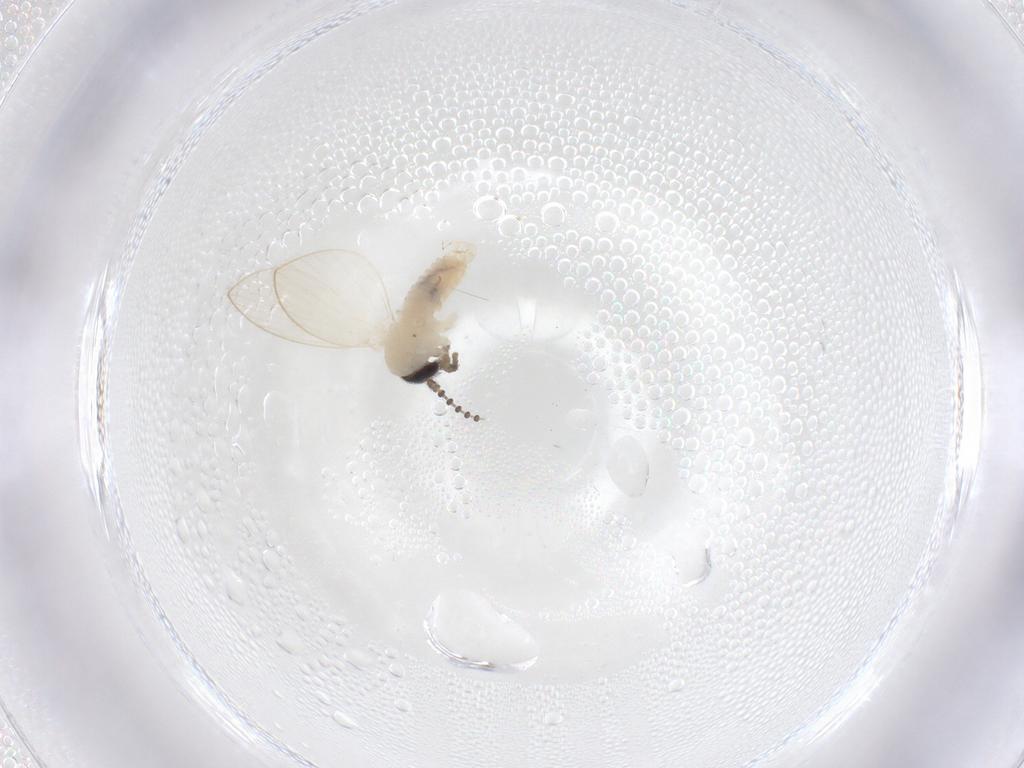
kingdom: Animalia
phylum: Arthropoda
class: Insecta
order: Diptera
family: Psychodidae
